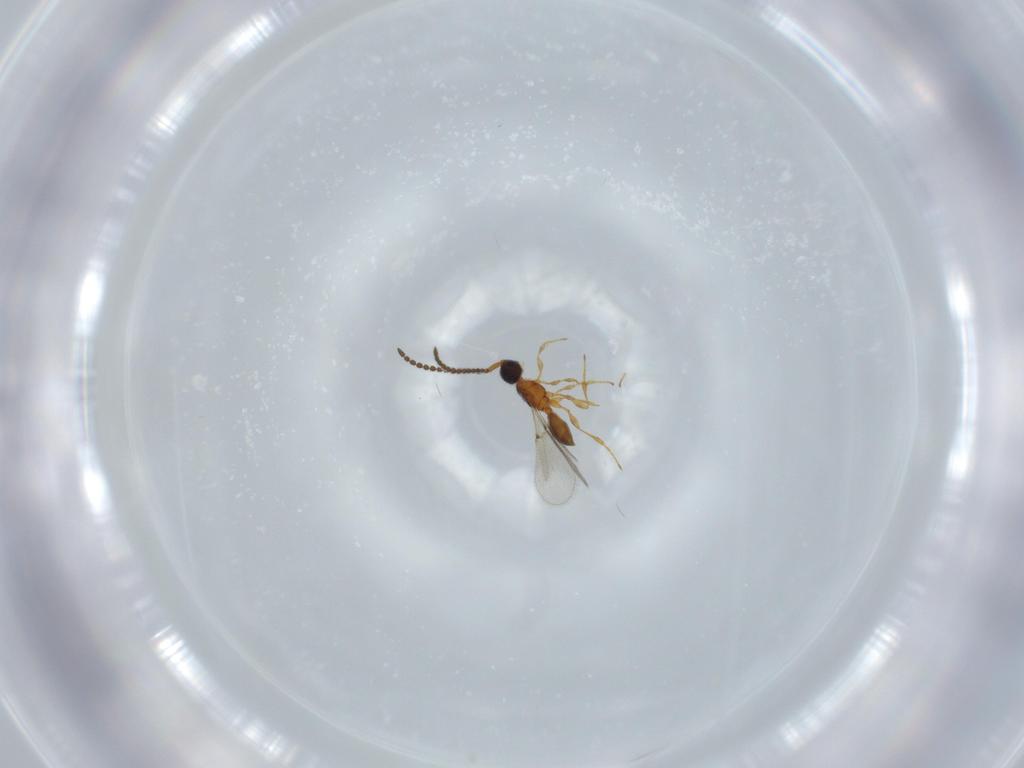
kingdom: Animalia
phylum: Arthropoda
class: Insecta
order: Hymenoptera
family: Diapriidae
